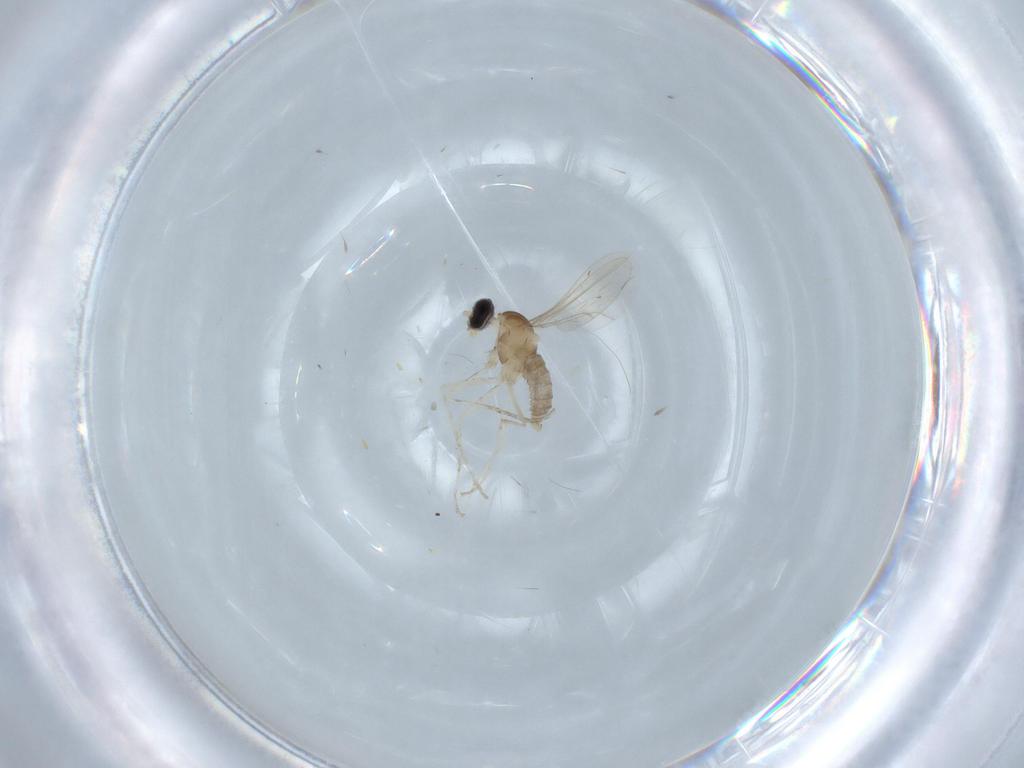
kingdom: Animalia
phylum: Arthropoda
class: Insecta
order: Diptera
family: Cecidomyiidae
